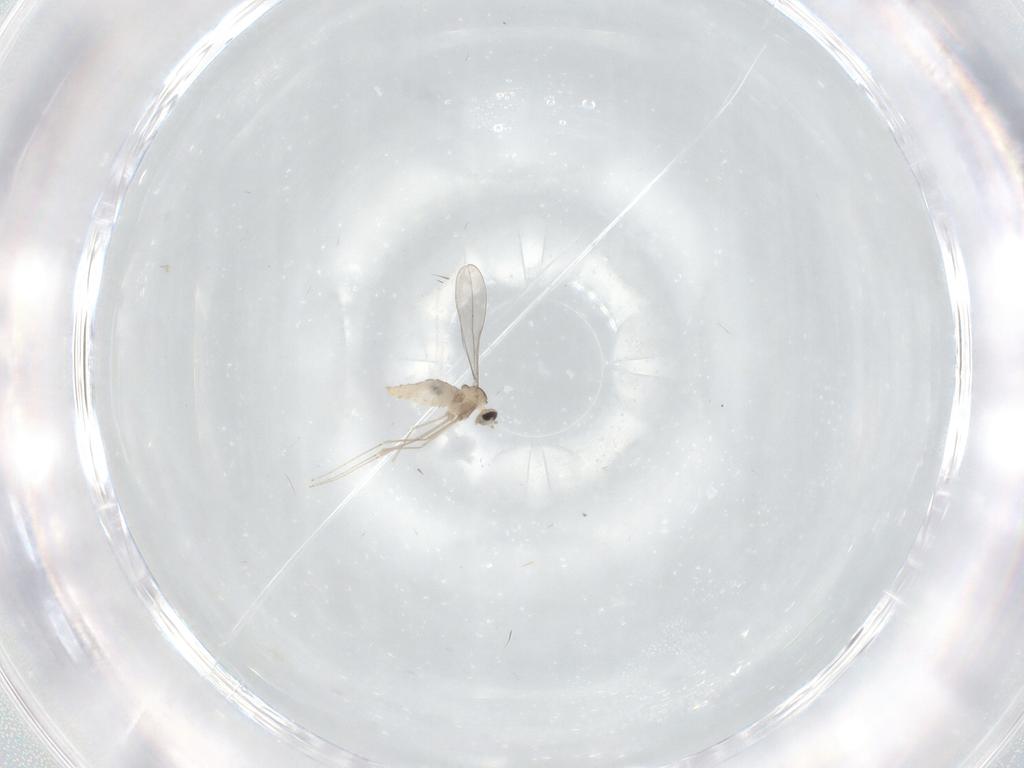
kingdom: Animalia
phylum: Arthropoda
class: Insecta
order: Diptera
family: Cecidomyiidae
